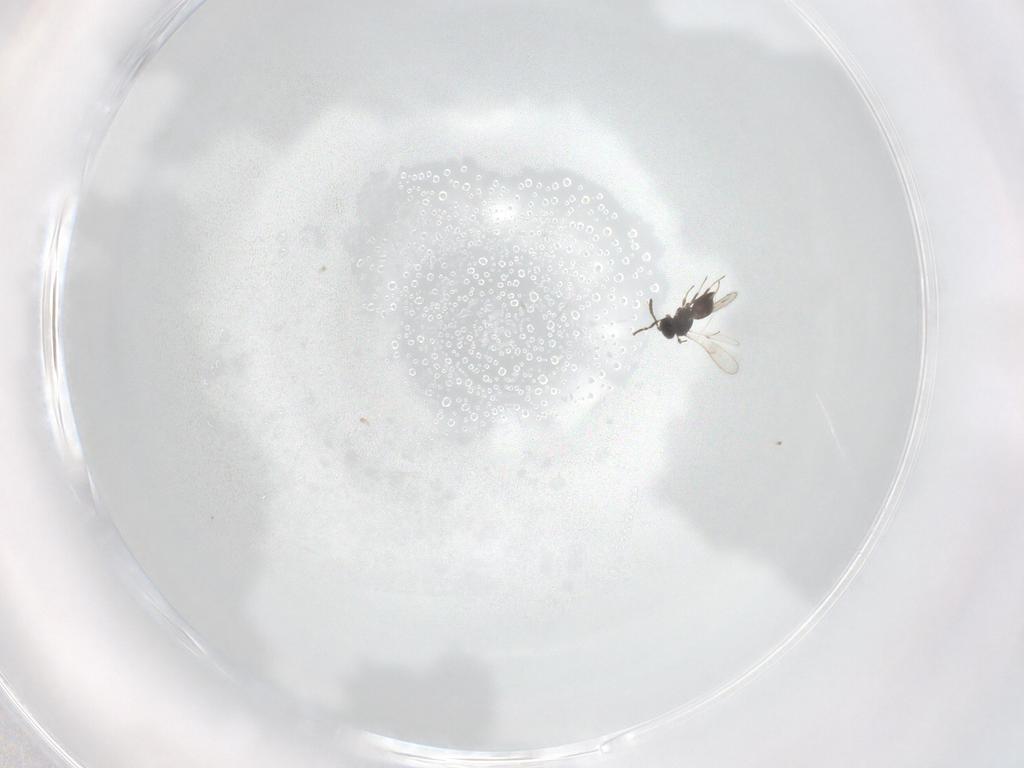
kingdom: Animalia
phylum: Arthropoda
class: Insecta
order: Hymenoptera
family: Scelionidae
